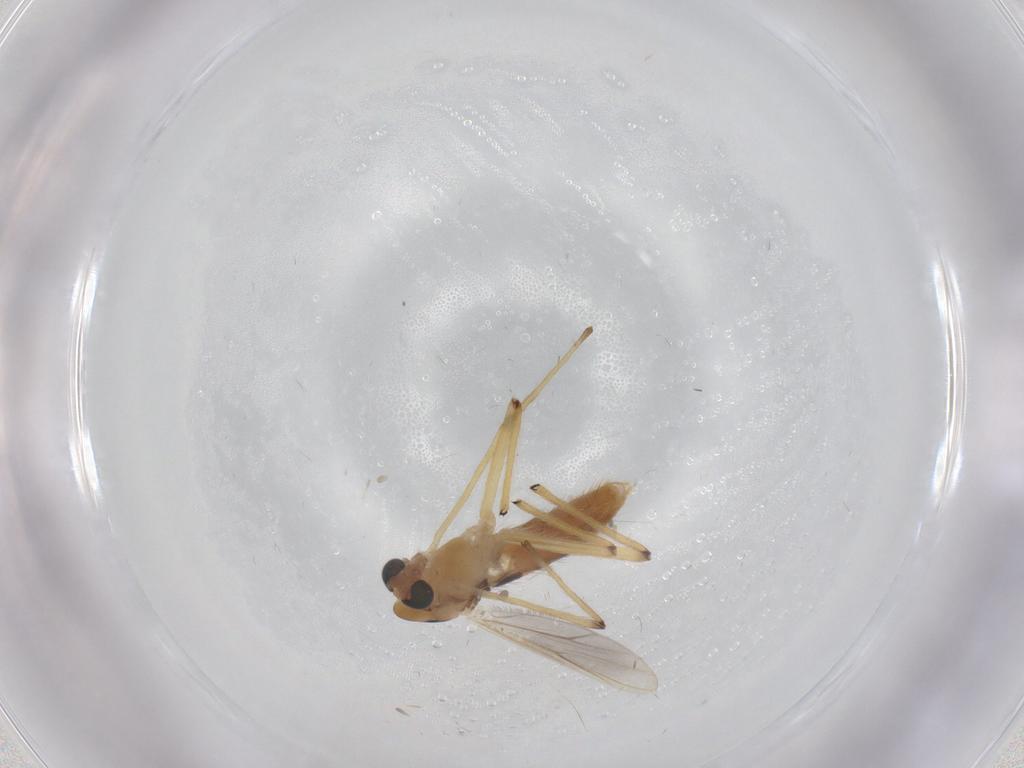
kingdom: Animalia
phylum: Arthropoda
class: Insecta
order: Diptera
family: Chironomidae
